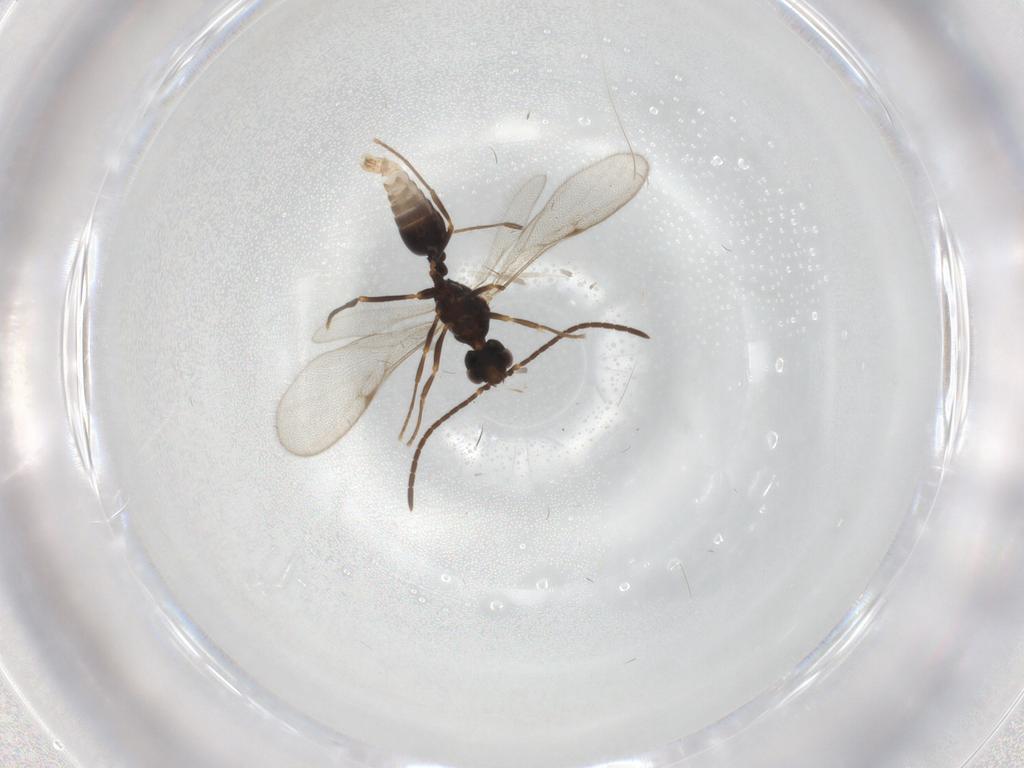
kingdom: Animalia
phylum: Arthropoda
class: Insecta
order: Hymenoptera
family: Formicidae
